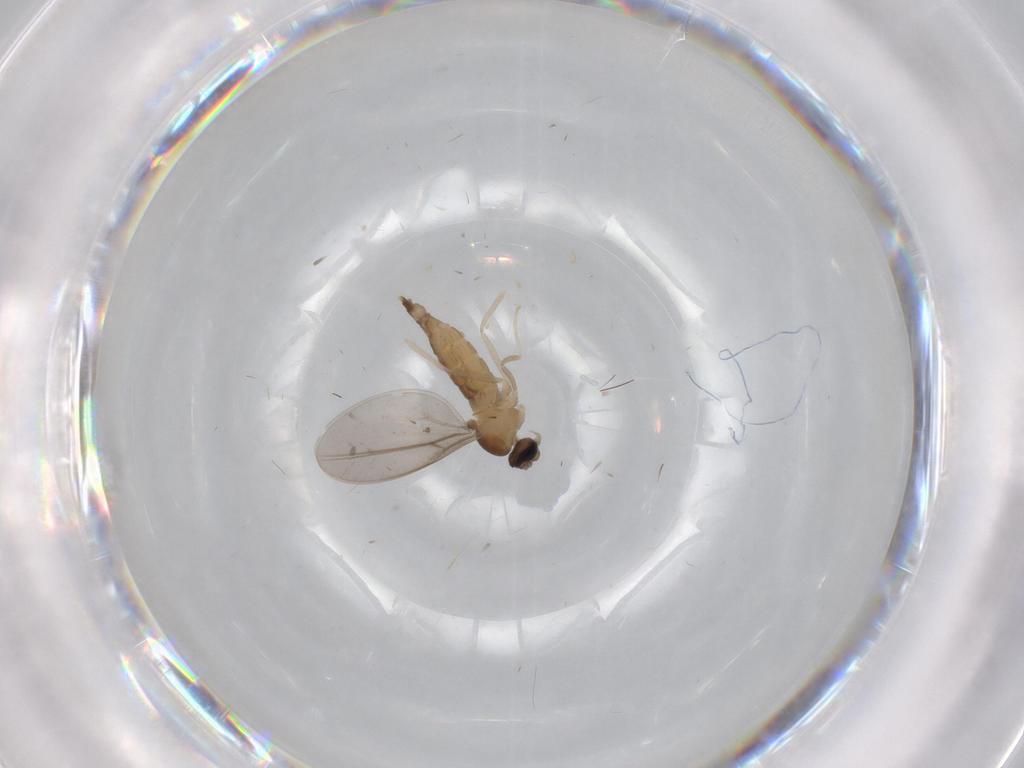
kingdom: Animalia
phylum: Arthropoda
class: Insecta
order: Diptera
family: Cecidomyiidae
